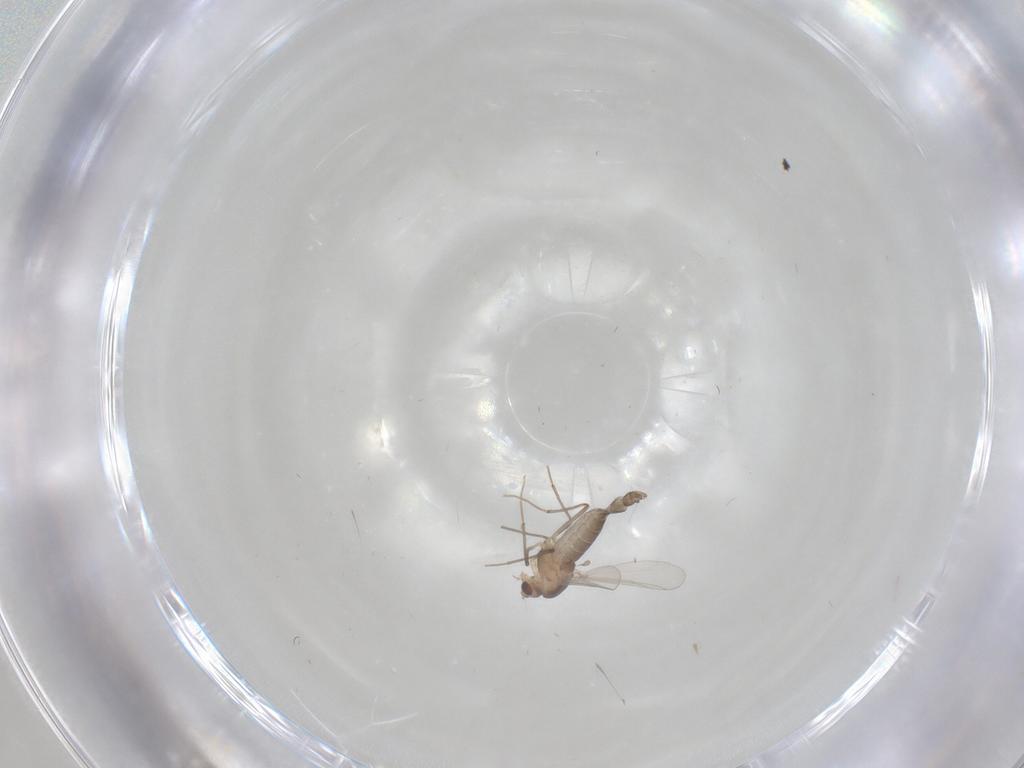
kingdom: Animalia
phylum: Arthropoda
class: Insecta
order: Diptera
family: Chironomidae
